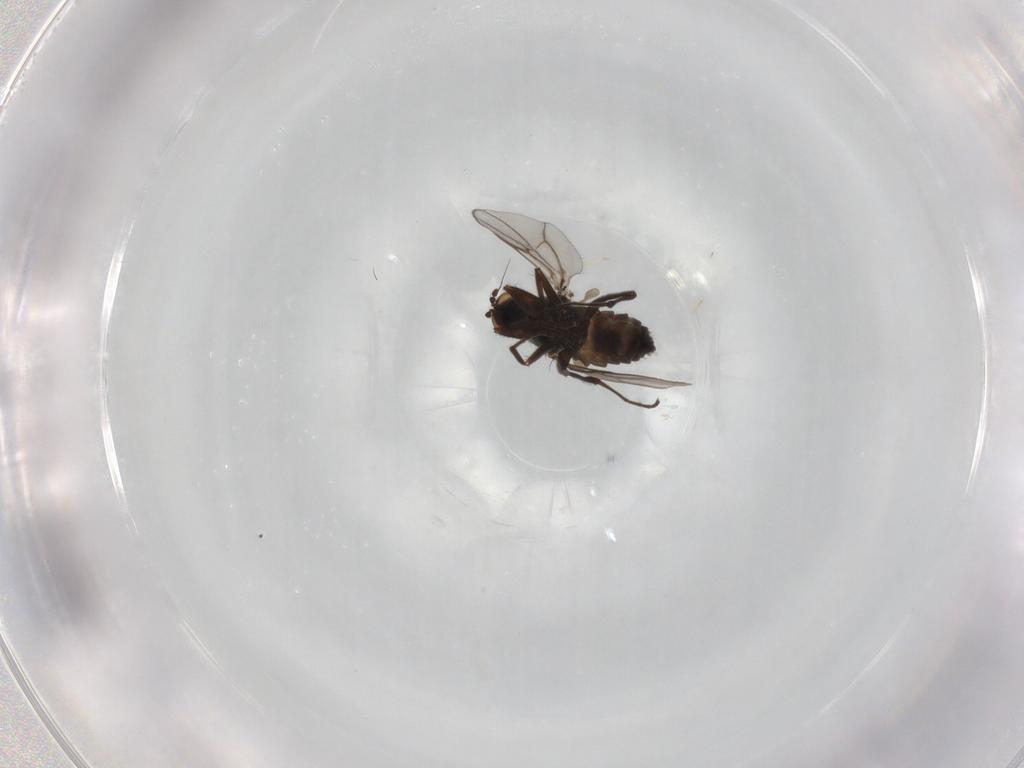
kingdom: Animalia
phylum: Arthropoda
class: Insecta
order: Diptera
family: Hybotidae
